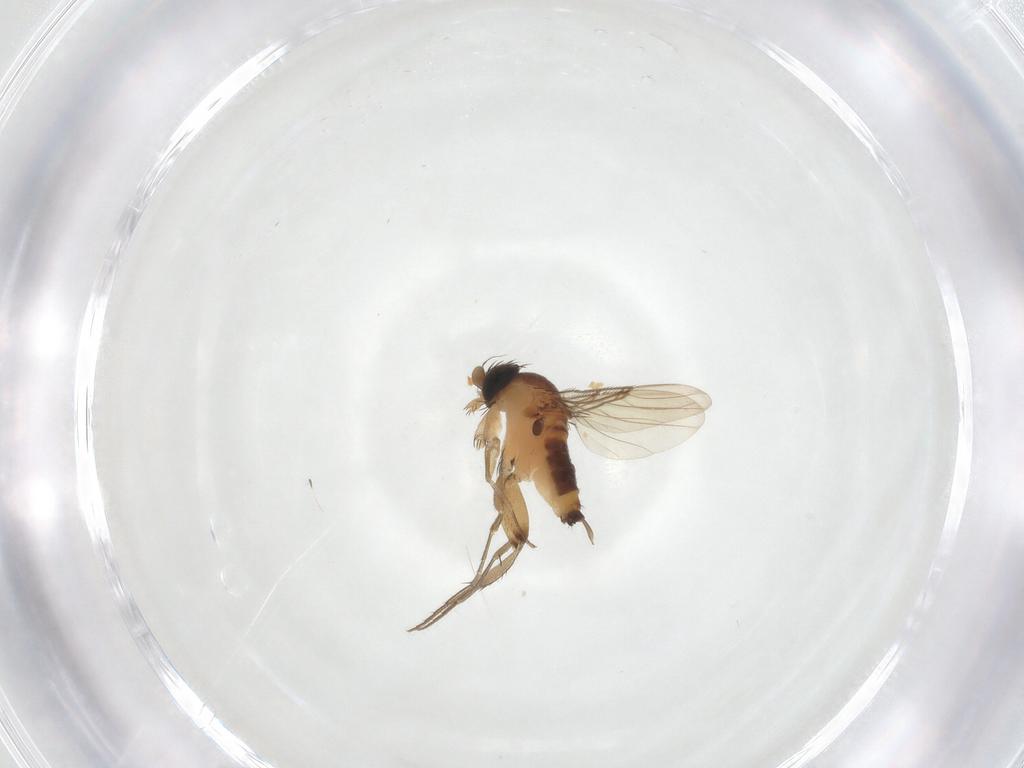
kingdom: Animalia
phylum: Arthropoda
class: Insecta
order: Diptera
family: Phoridae
